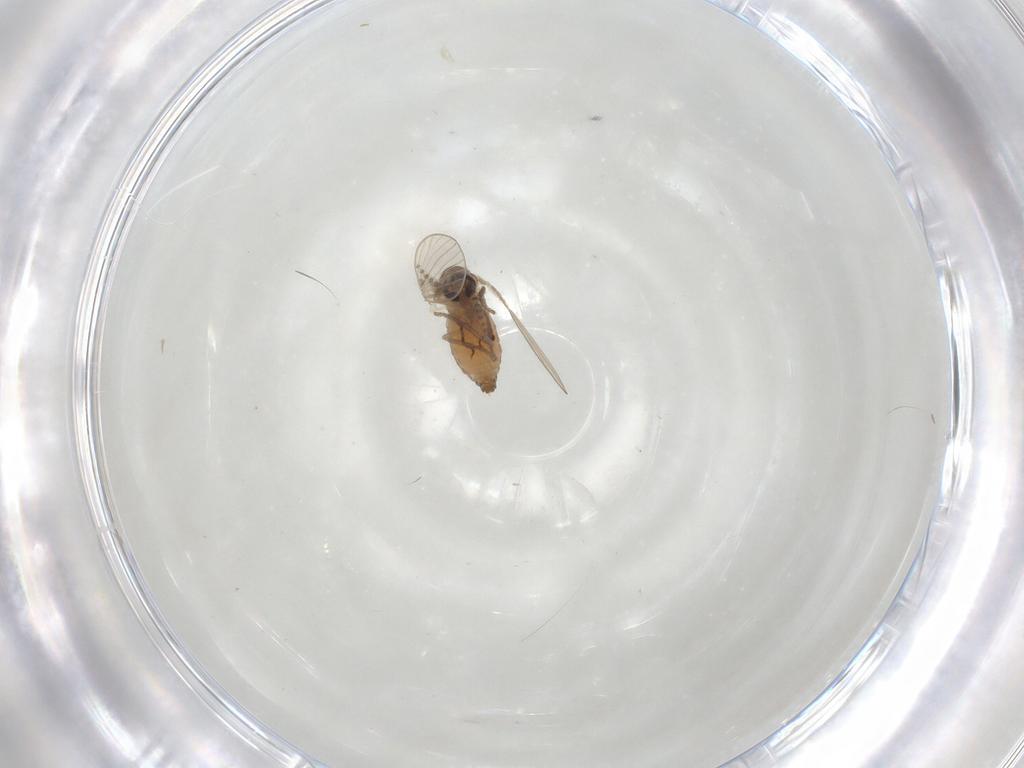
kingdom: Animalia
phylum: Arthropoda
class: Insecta
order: Diptera
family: Psychodidae
